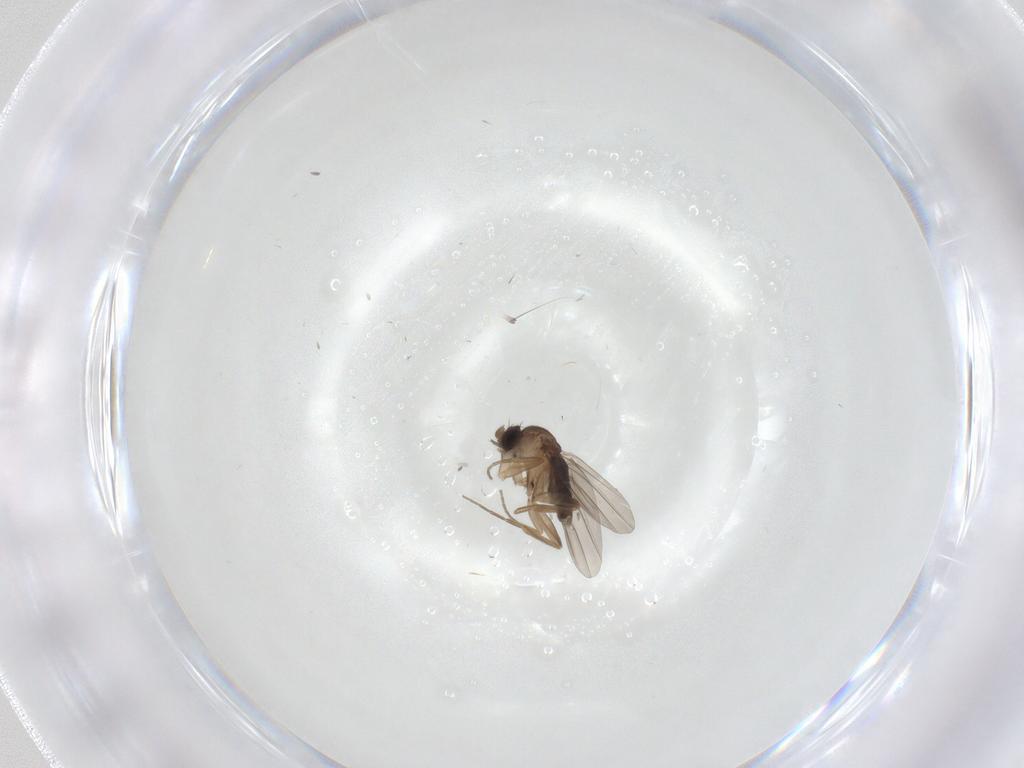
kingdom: Animalia
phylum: Arthropoda
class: Insecta
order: Diptera
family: Phoridae
